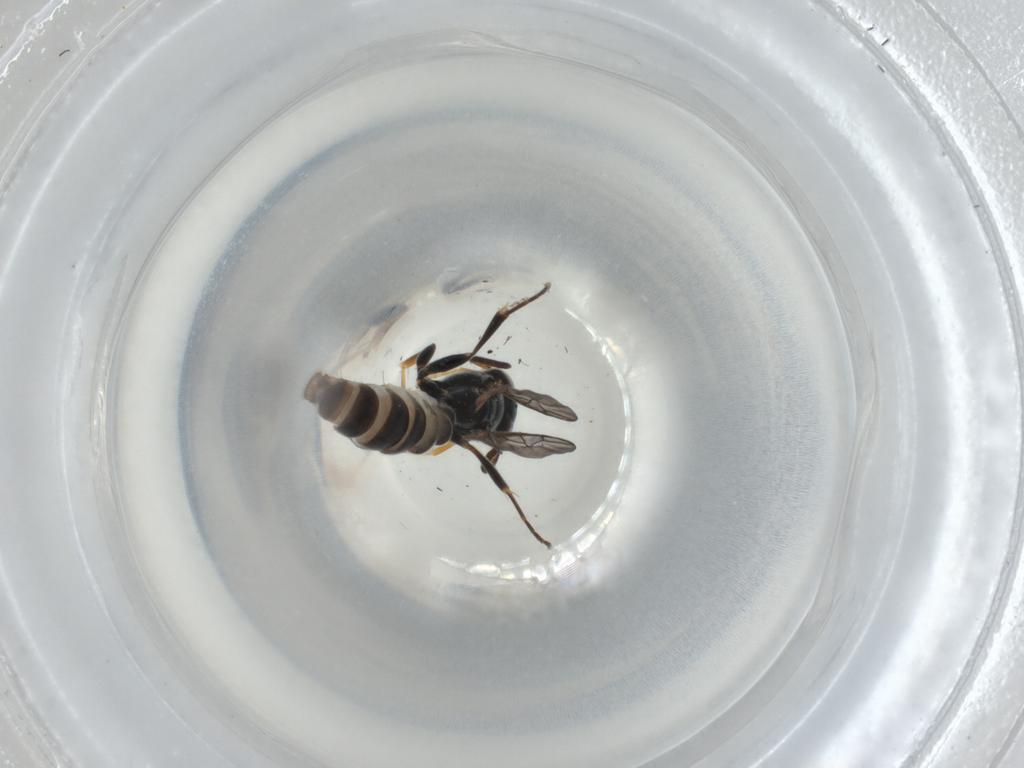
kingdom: Animalia
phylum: Arthropoda
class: Insecta
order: Hymenoptera
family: Crabronidae
